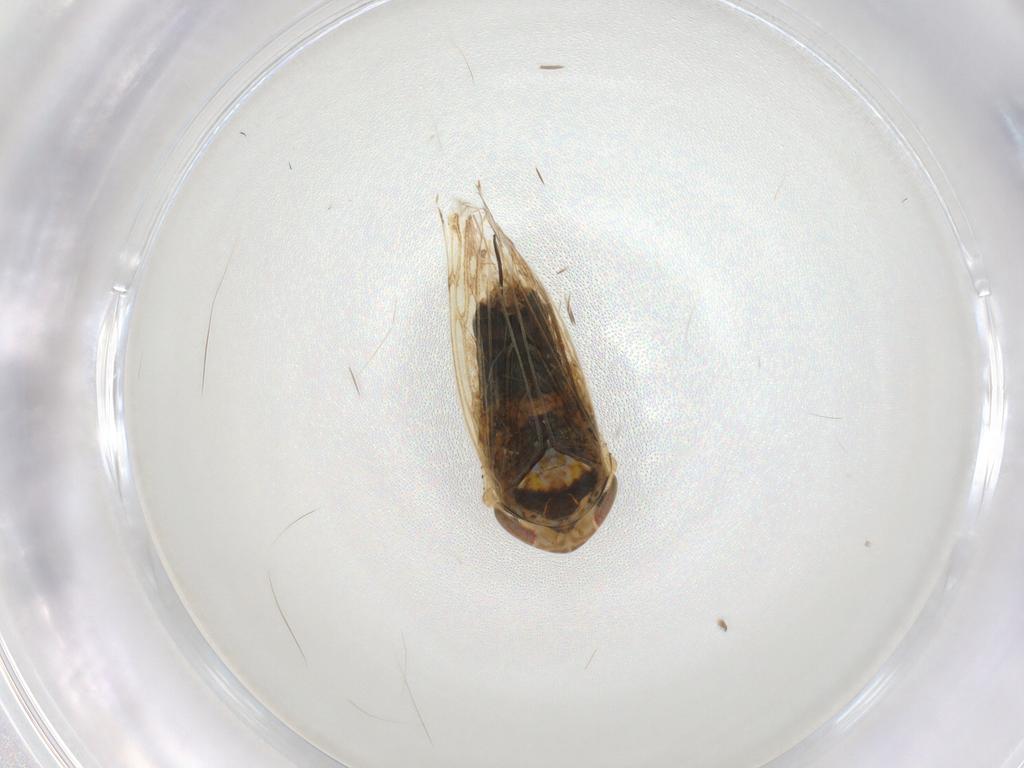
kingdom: Animalia
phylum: Arthropoda
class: Insecta
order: Hemiptera
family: Cicadellidae
